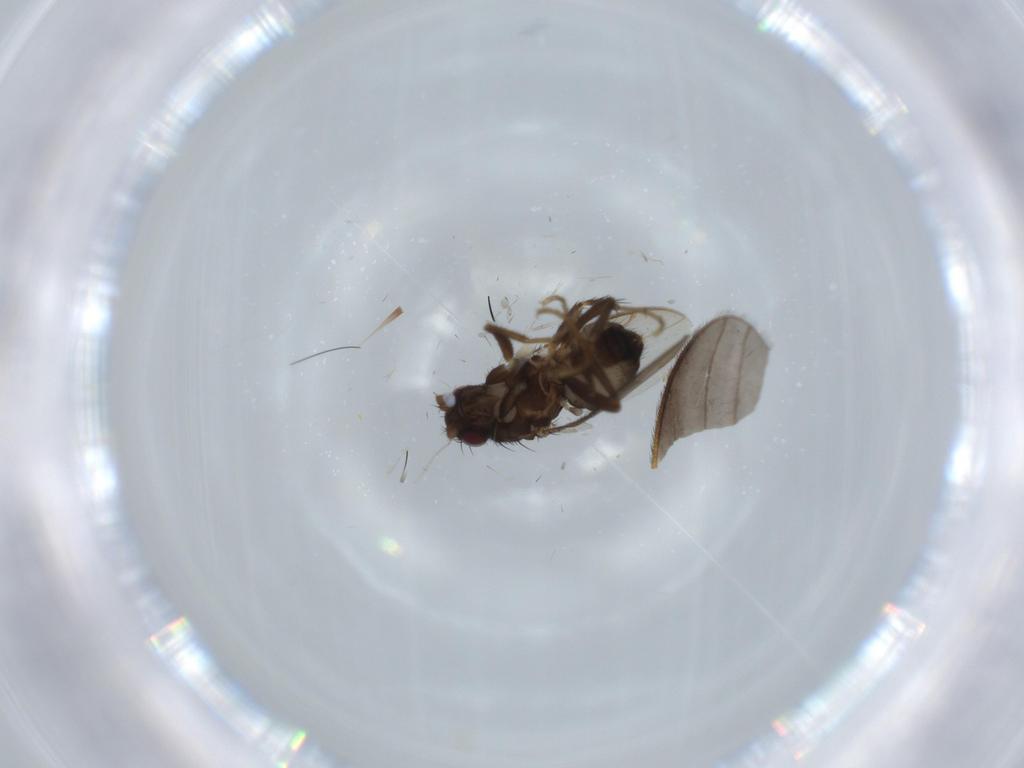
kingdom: Animalia
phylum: Arthropoda
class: Insecta
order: Diptera
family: Sphaeroceridae
